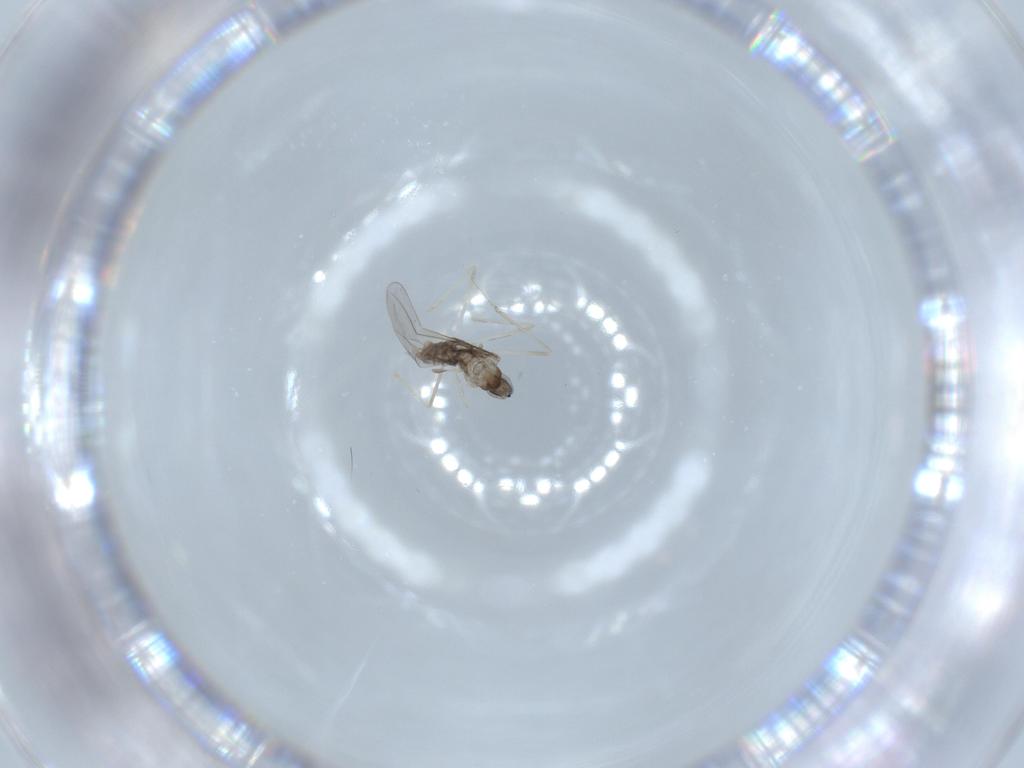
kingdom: Animalia
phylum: Arthropoda
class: Insecta
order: Diptera
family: Cecidomyiidae
